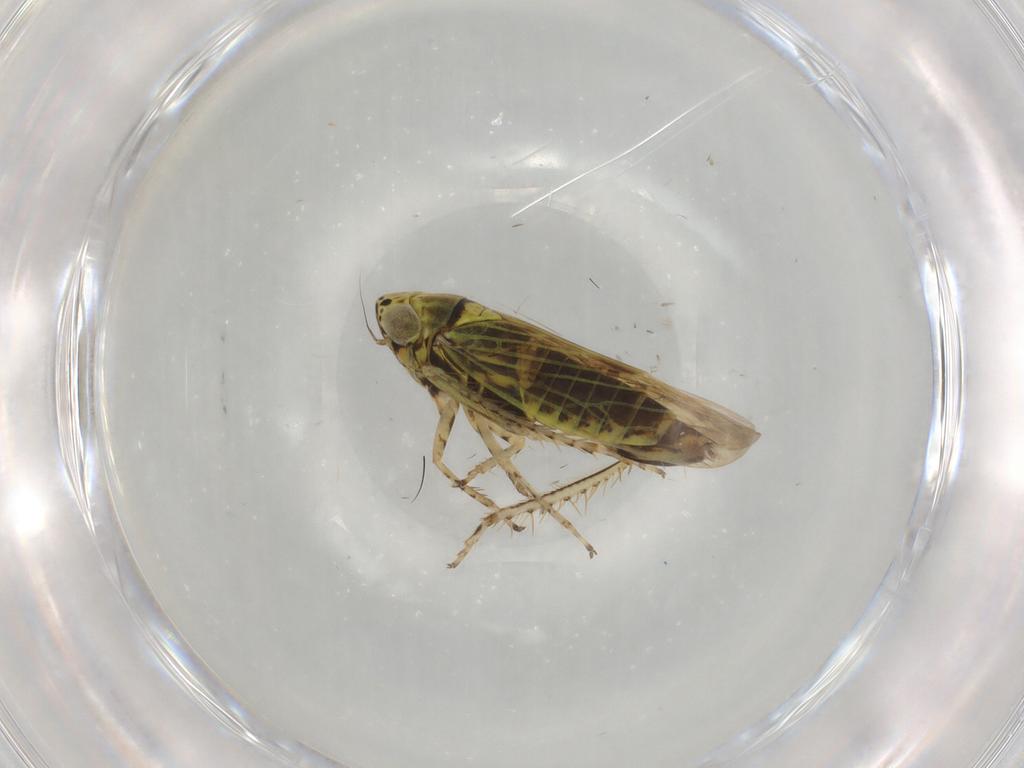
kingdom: Animalia
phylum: Arthropoda
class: Insecta
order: Hemiptera
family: Cicadellidae
